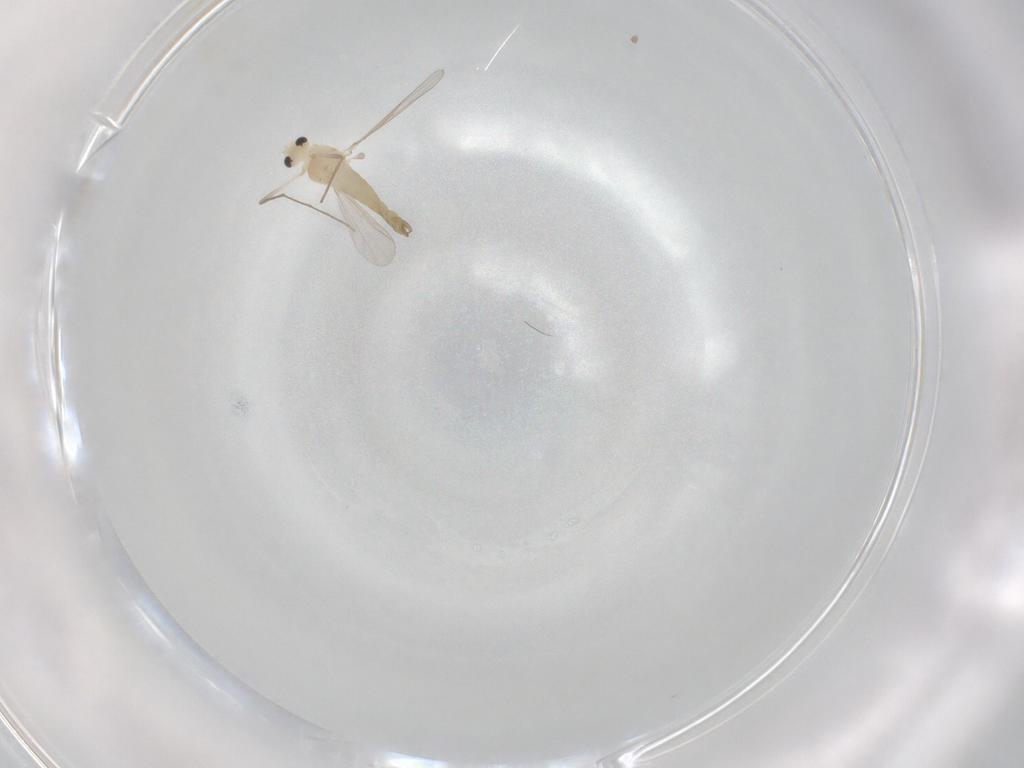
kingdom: Animalia
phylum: Arthropoda
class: Insecta
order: Diptera
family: Chironomidae
